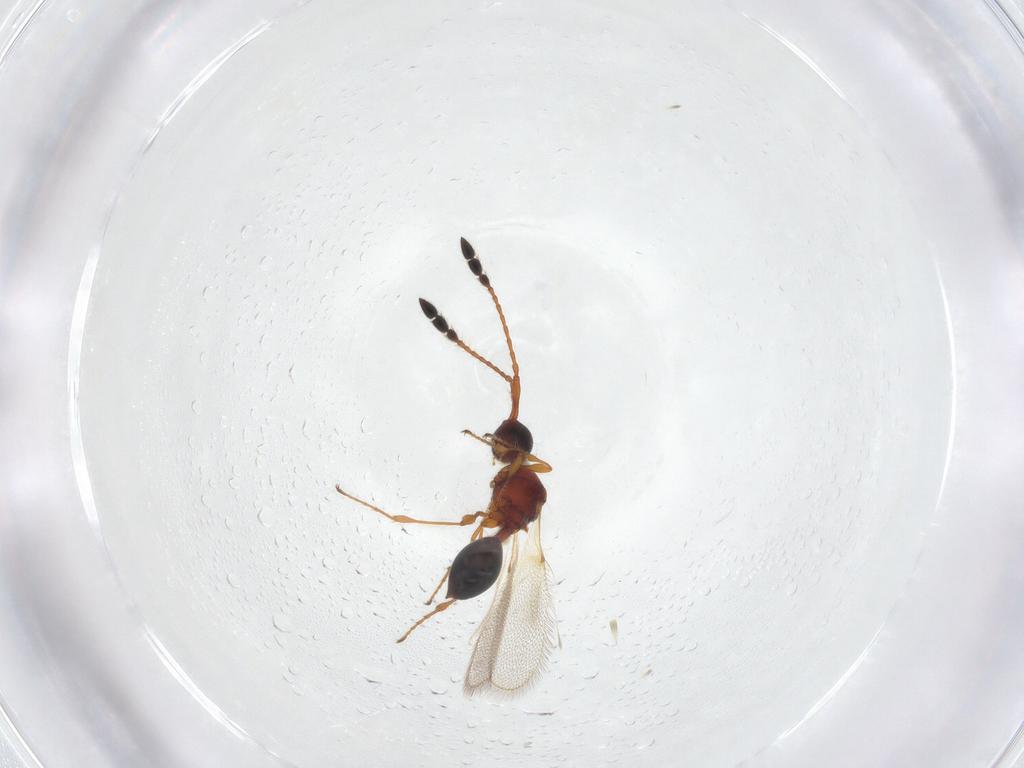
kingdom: Animalia
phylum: Arthropoda
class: Insecta
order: Hymenoptera
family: Diapriidae
